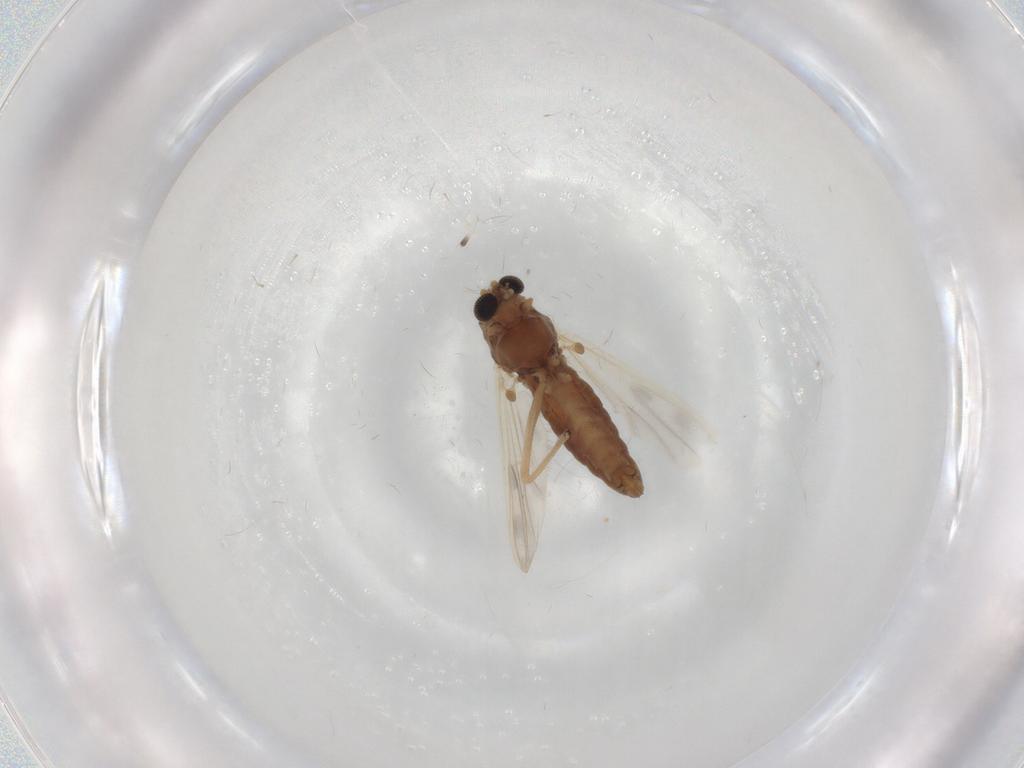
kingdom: Animalia
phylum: Arthropoda
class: Insecta
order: Diptera
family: Chironomidae
